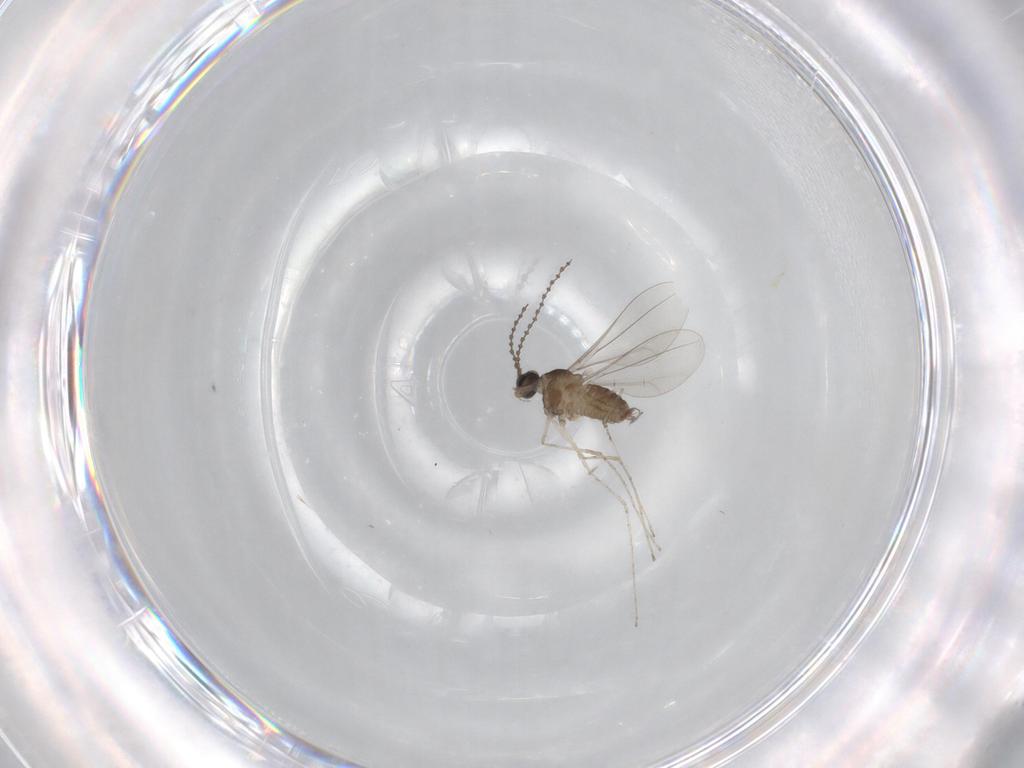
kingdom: Animalia
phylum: Arthropoda
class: Insecta
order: Diptera
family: Cecidomyiidae
